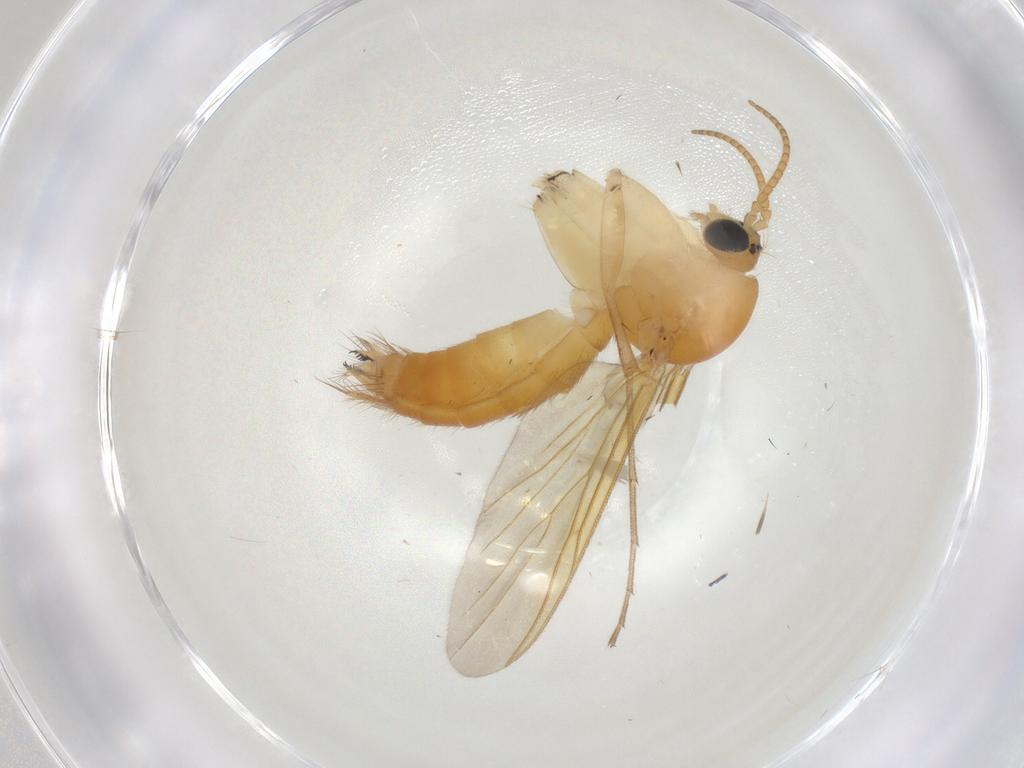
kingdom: Animalia
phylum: Arthropoda
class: Insecta
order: Diptera
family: Mycetophilidae
